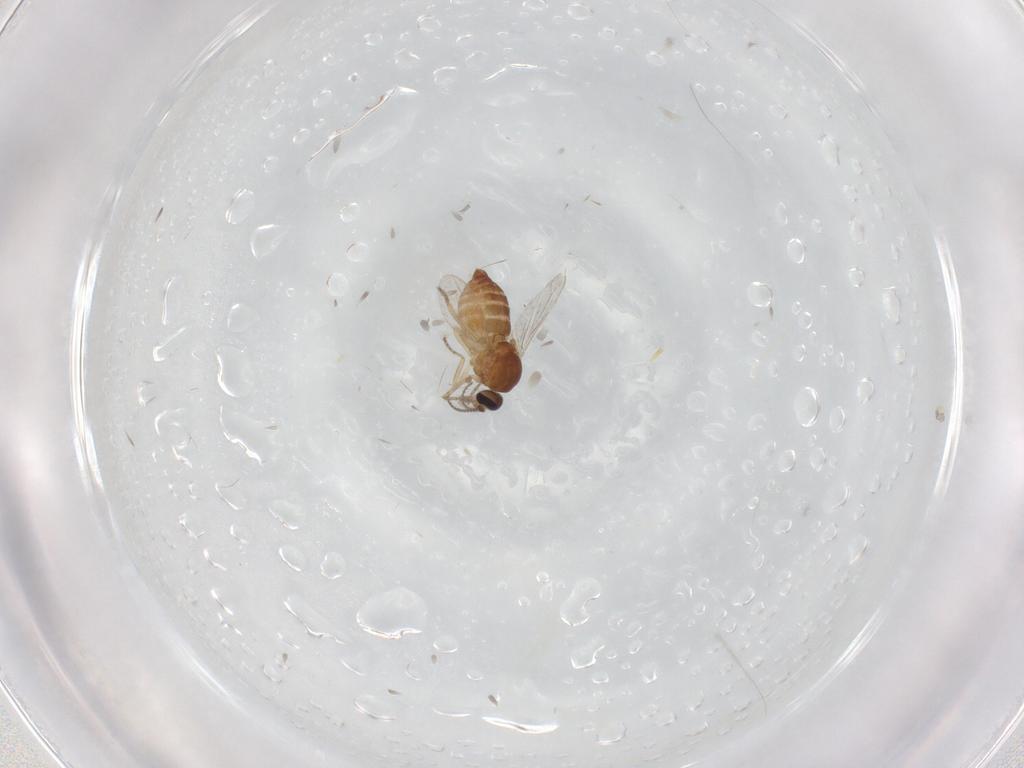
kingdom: Animalia
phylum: Arthropoda
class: Insecta
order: Diptera
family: Ceratopogonidae
